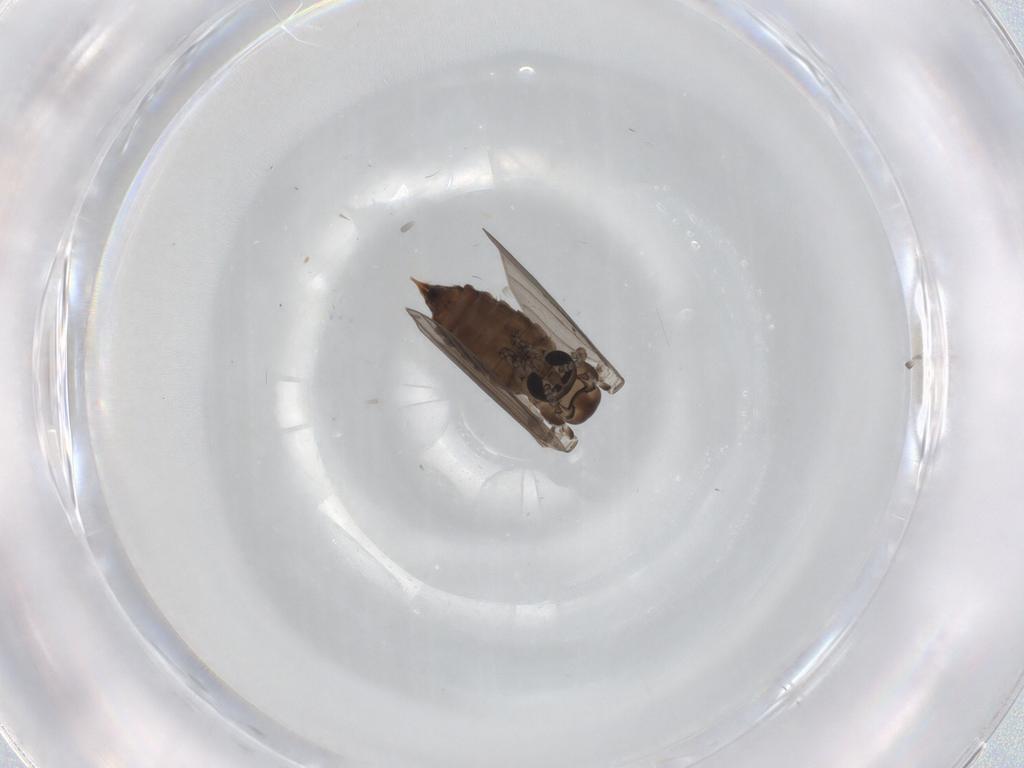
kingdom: Animalia
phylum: Arthropoda
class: Insecta
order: Diptera
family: Psychodidae
